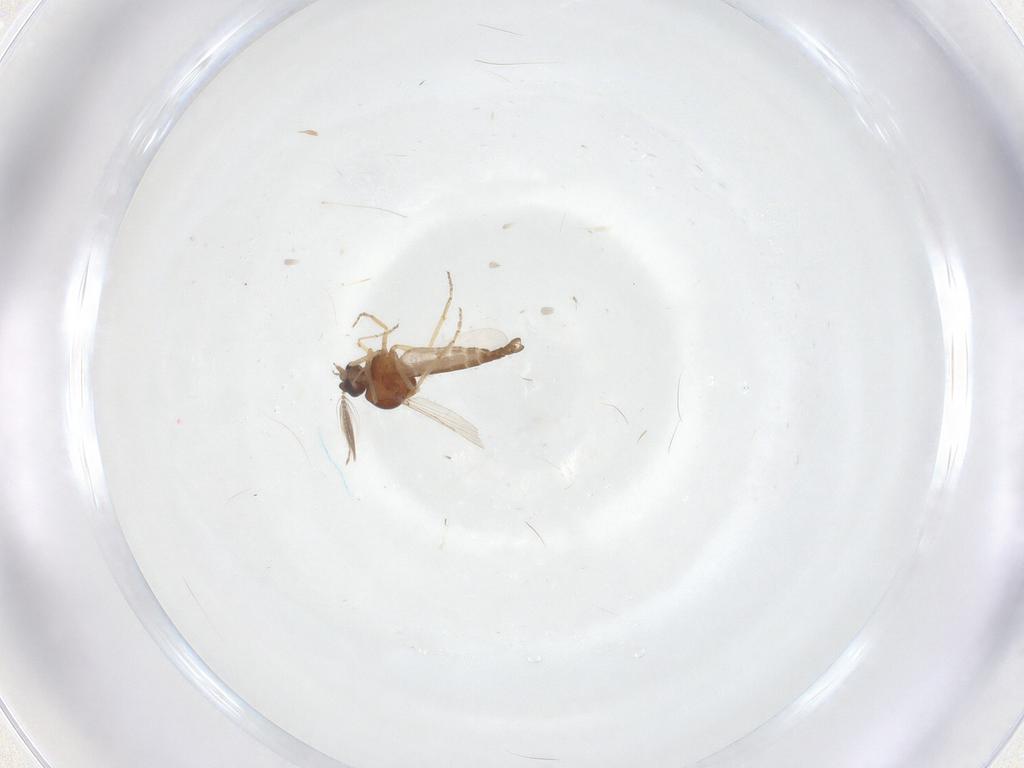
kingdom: Animalia
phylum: Arthropoda
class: Insecta
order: Diptera
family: Ceratopogonidae
